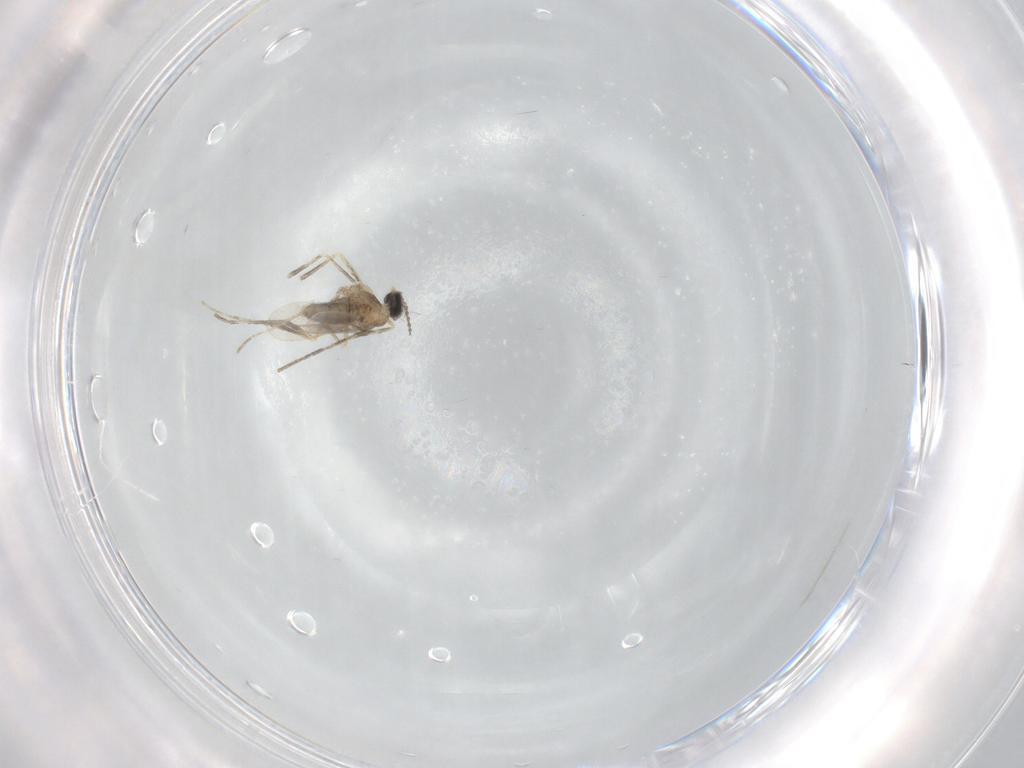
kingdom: Animalia
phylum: Arthropoda
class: Insecta
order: Diptera
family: Cecidomyiidae
